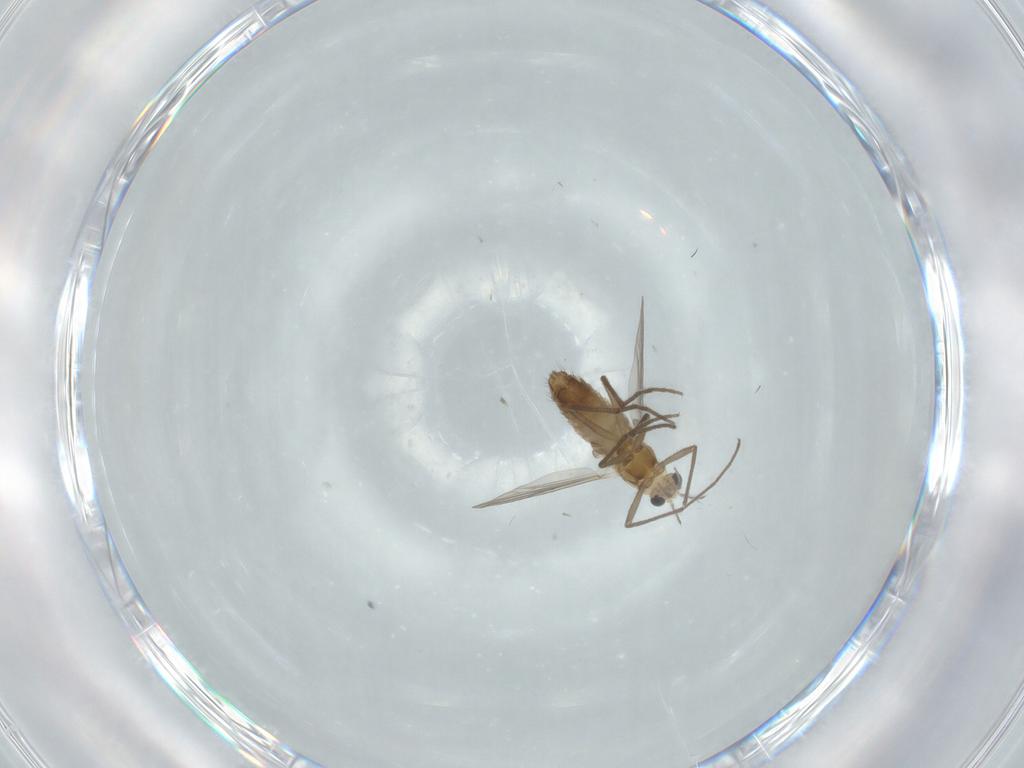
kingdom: Animalia
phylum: Arthropoda
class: Insecta
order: Diptera
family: Chironomidae
